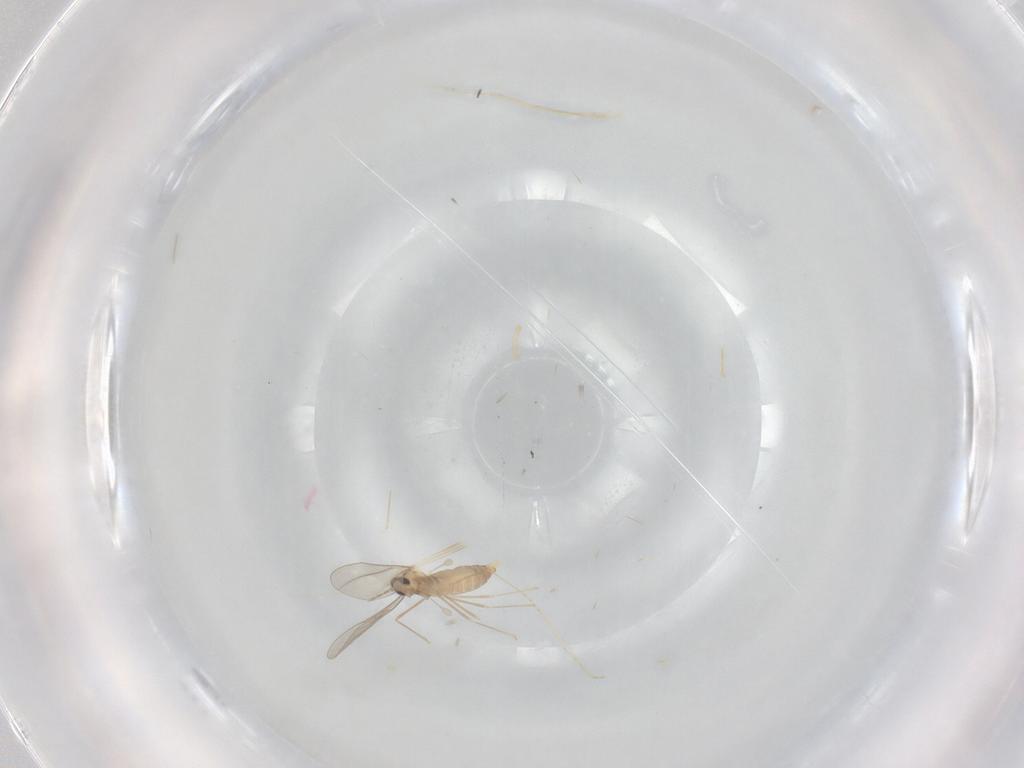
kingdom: Animalia
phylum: Arthropoda
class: Insecta
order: Diptera
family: Cecidomyiidae
